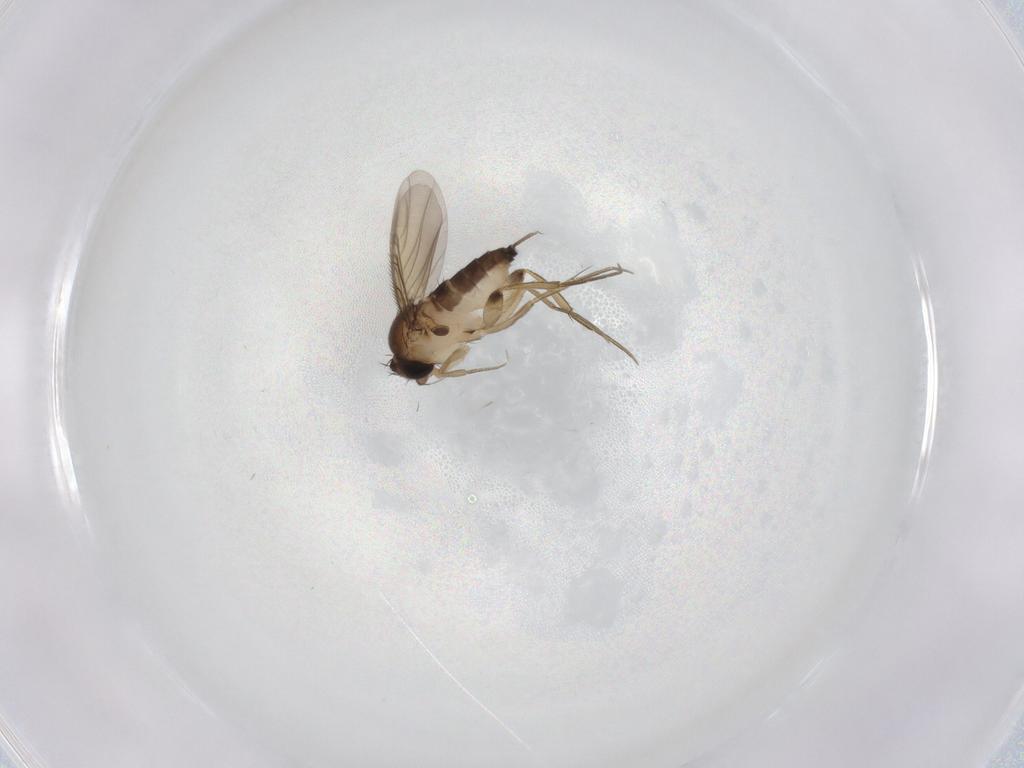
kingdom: Animalia
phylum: Arthropoda
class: Insecta
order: Diptera
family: Phoridae
